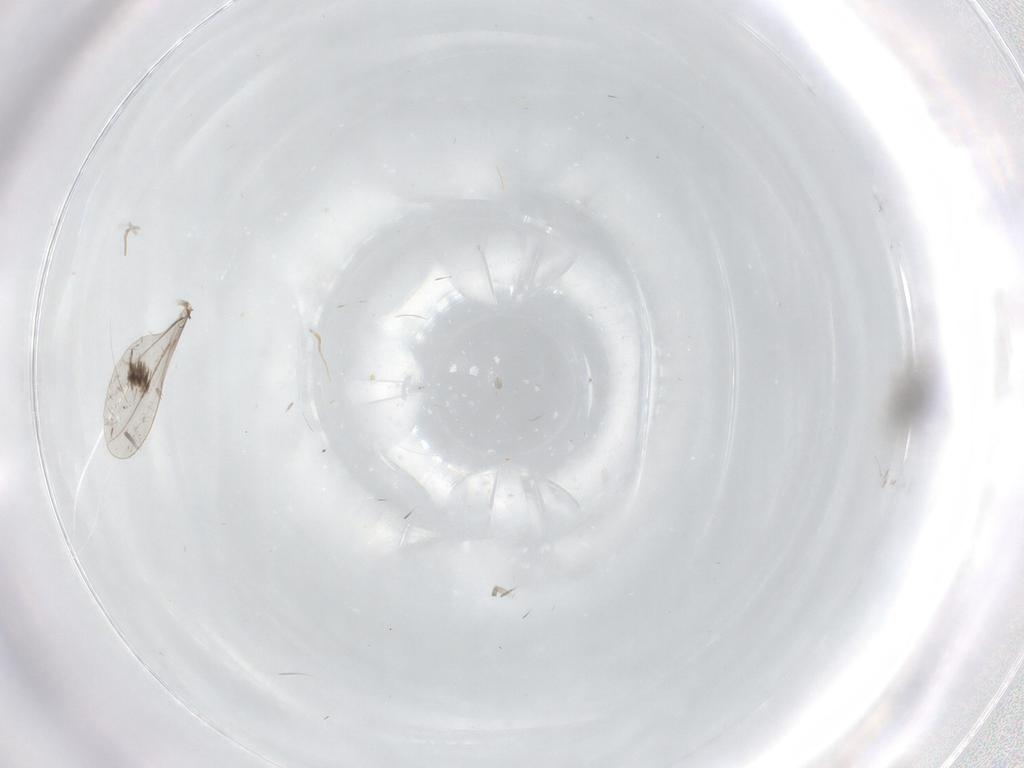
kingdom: Animalia
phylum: Arthropoda
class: Insecta
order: Diptera
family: Cecidomyiidae
